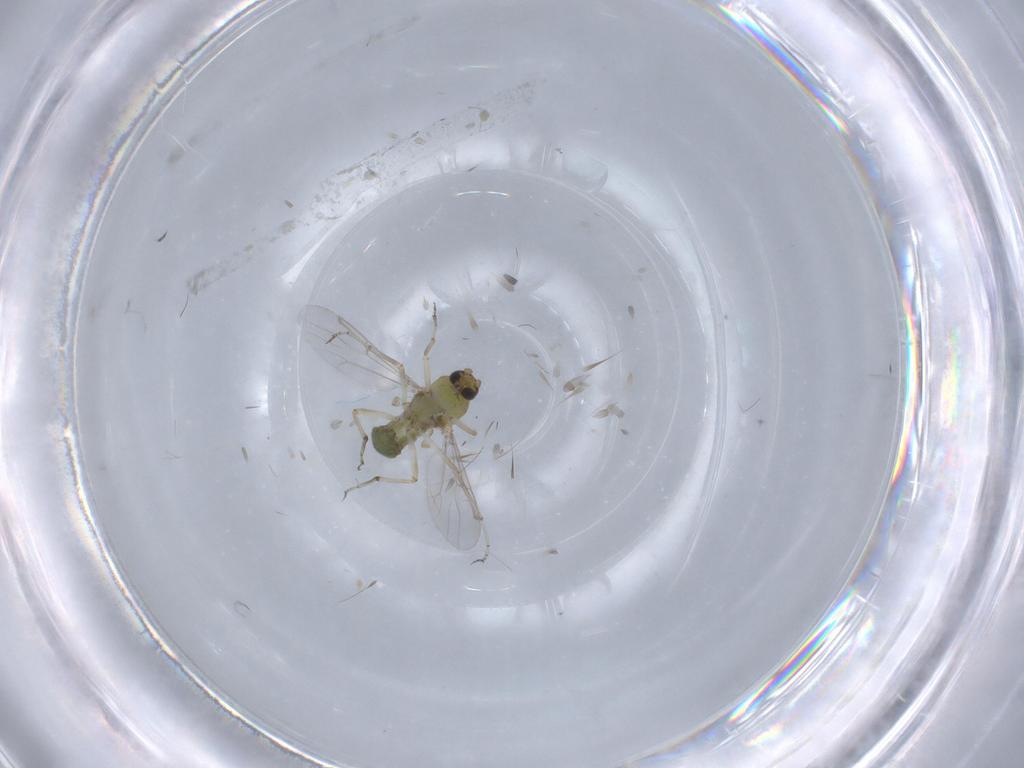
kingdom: Animalia
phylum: Arthropoda
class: Insecta
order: Diptera
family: Chironomidae
